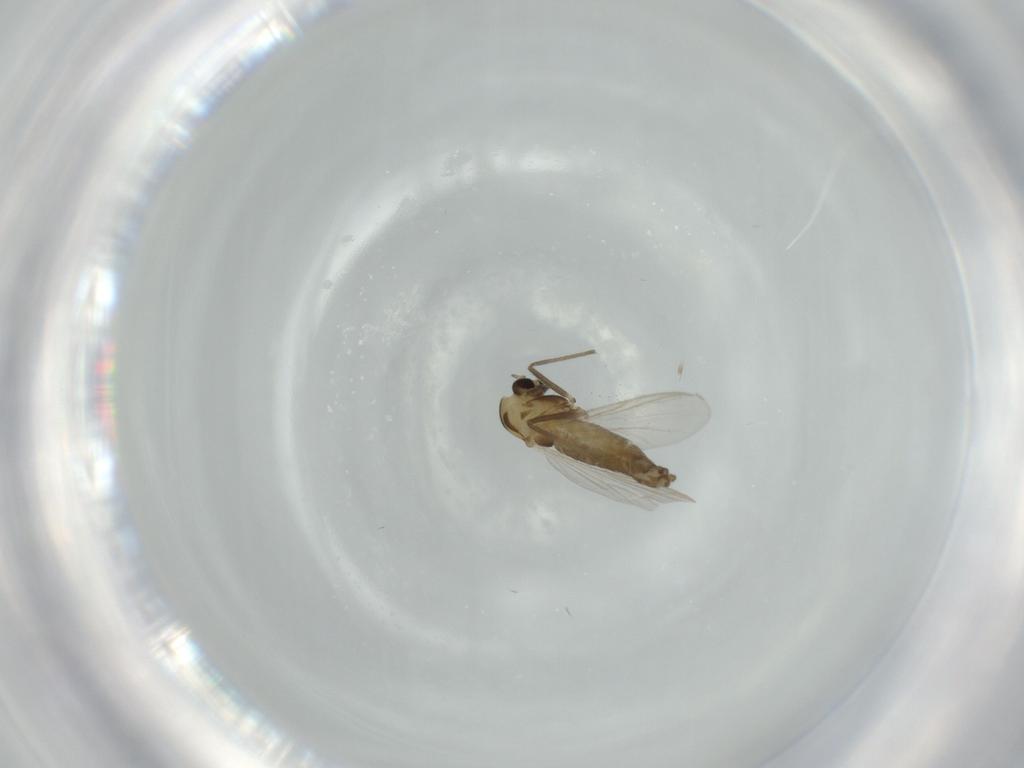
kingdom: Animalia
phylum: Arthropoda
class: Insecta
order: Diptera
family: Chironomidae
